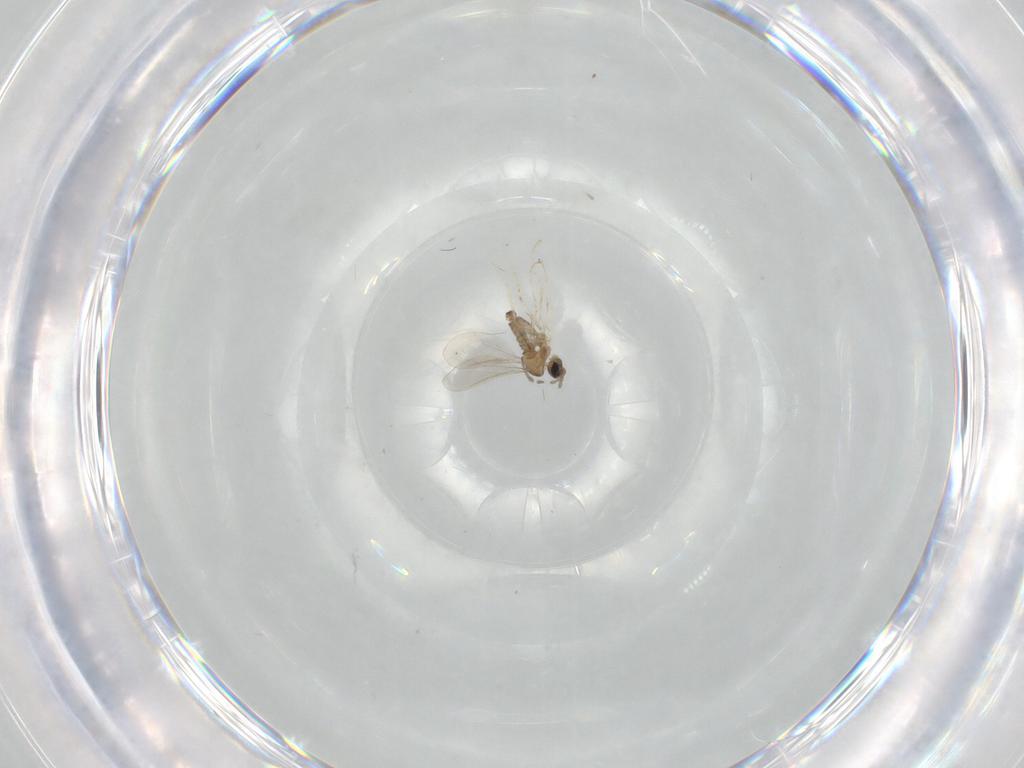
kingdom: Animalia
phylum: Arthropoda
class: Insecta
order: Diptera
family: Cecidomyiidae
